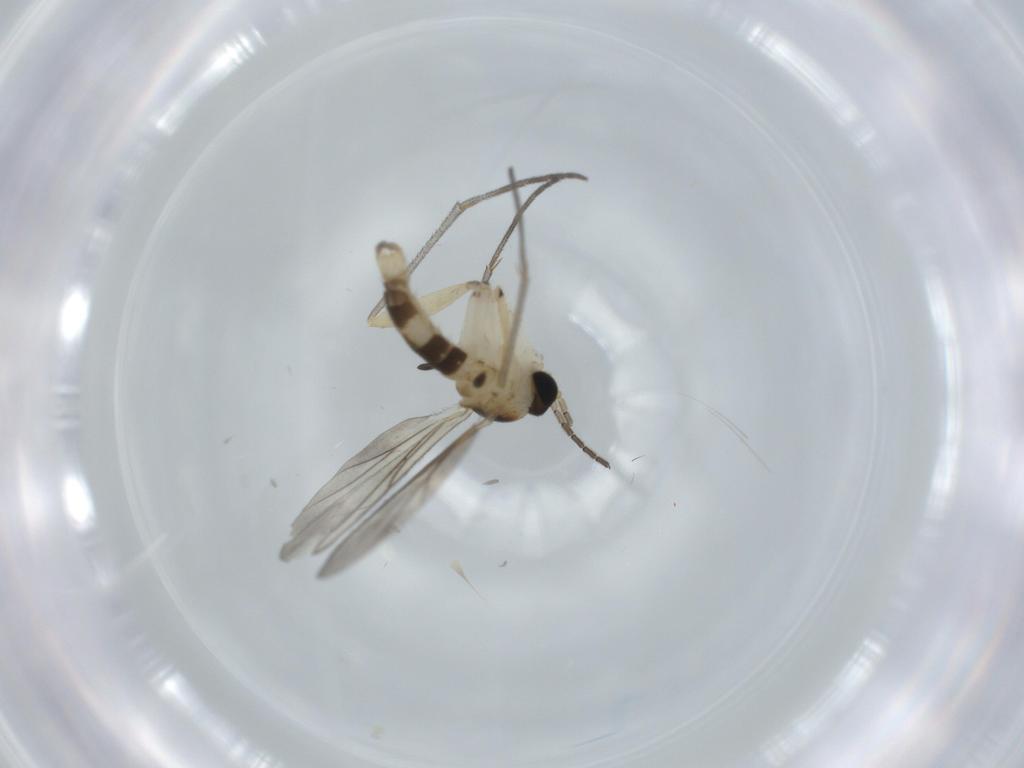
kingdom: Animalia
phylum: Arthropoda
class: Insecta
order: Diptera
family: Sciaridae
